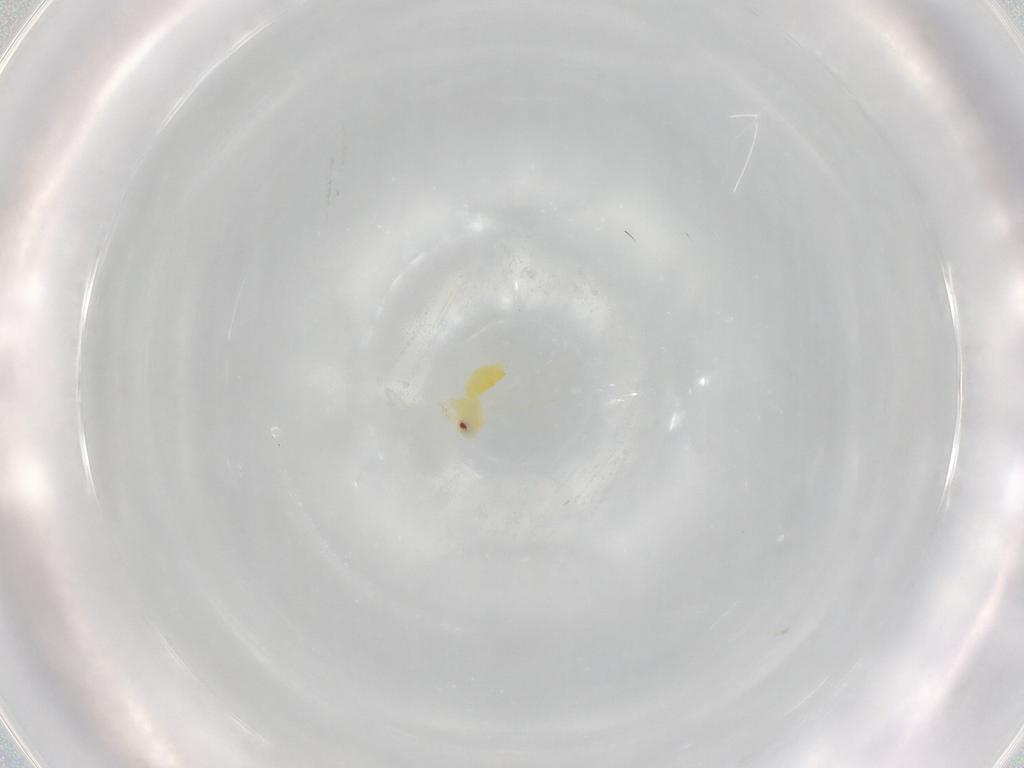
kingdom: Animalia
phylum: Arthropoda
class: Insecta
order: Hemiptera
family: Aleyrodidae
